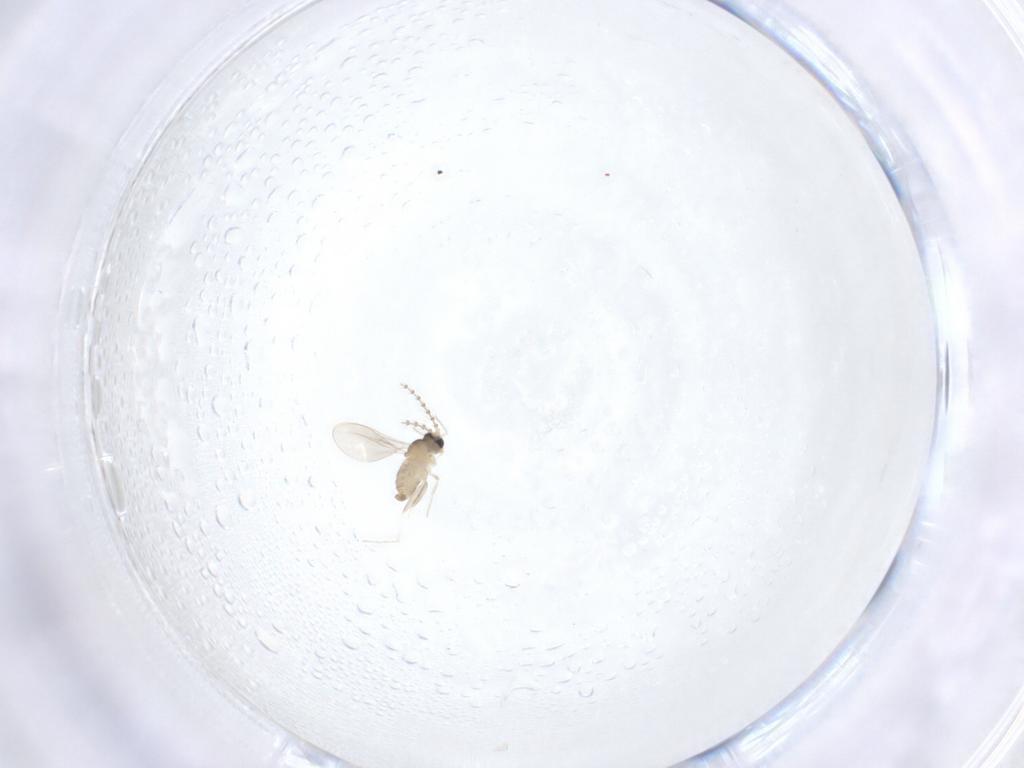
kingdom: Animalia
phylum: Arthropoda
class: Insecta
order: Diptera
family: Cecidomyiidae
